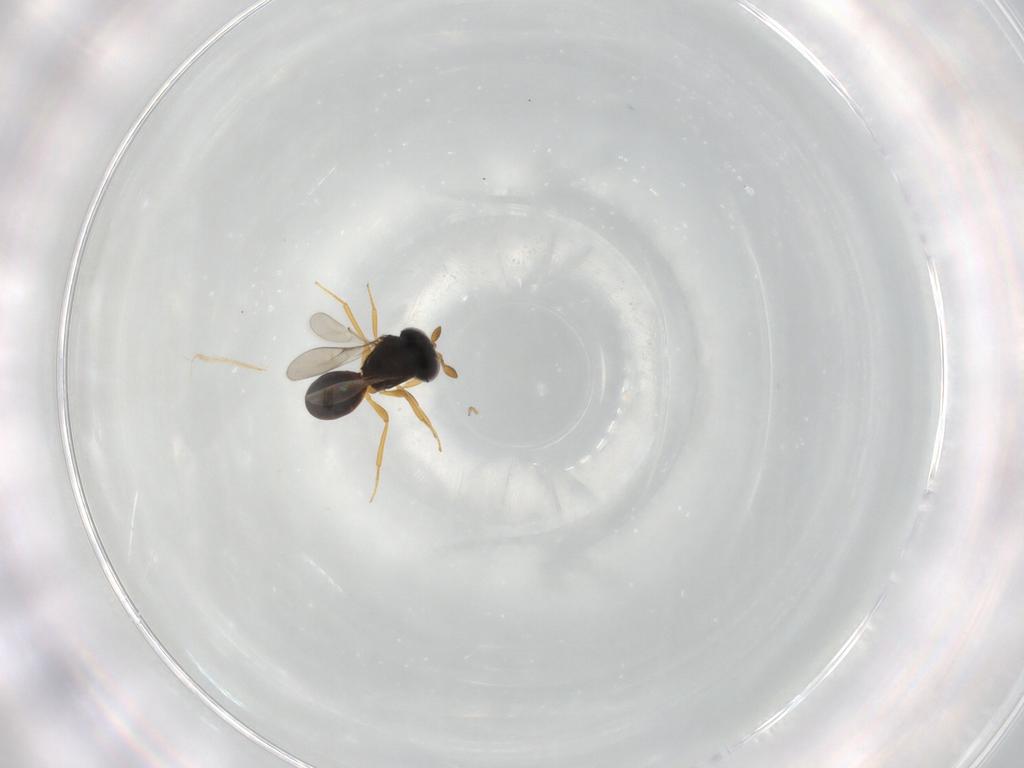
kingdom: Animalia
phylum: Arthropoda
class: Insecta
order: Hymenoptera
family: Scelionidae
